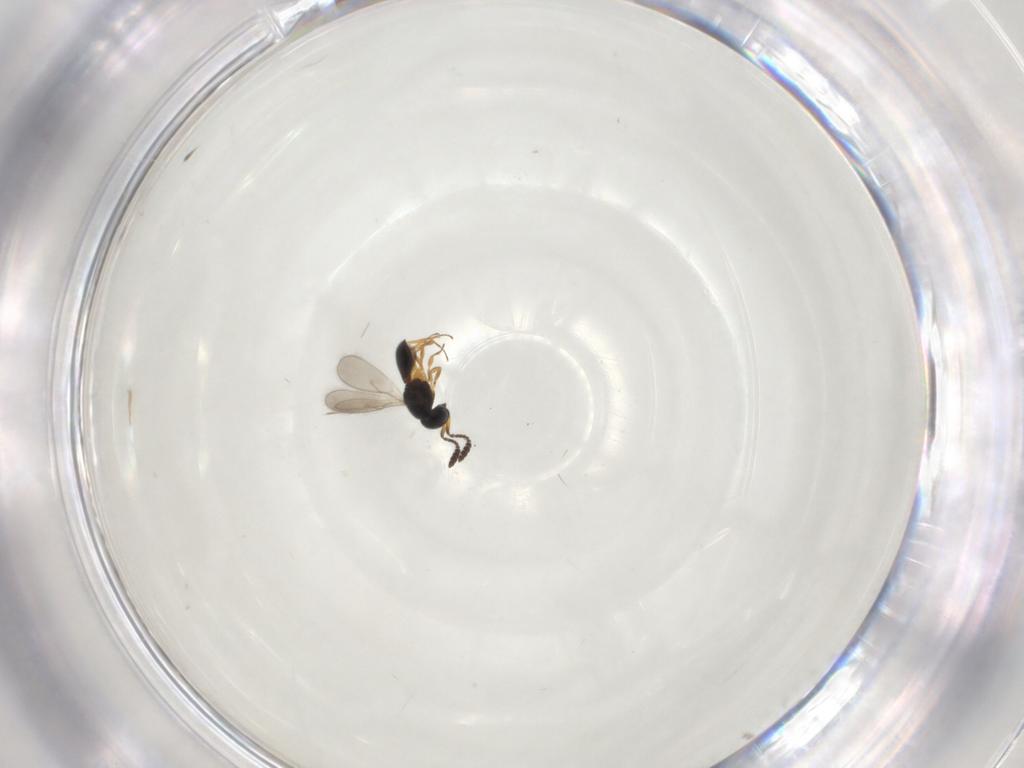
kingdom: Animalia
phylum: Arthropoda
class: Insecta
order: Hymenoptera
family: Scelionidae
